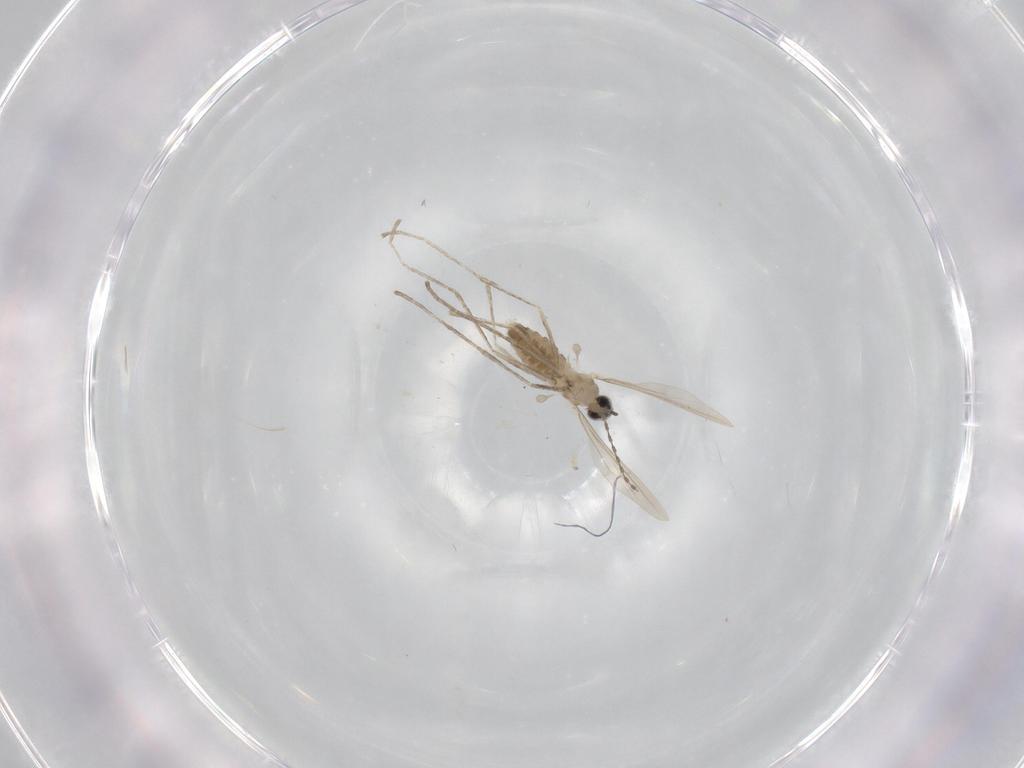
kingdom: Animalia
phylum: Arthropoda
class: Insecta
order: Diptera
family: Cecidomyiidae
